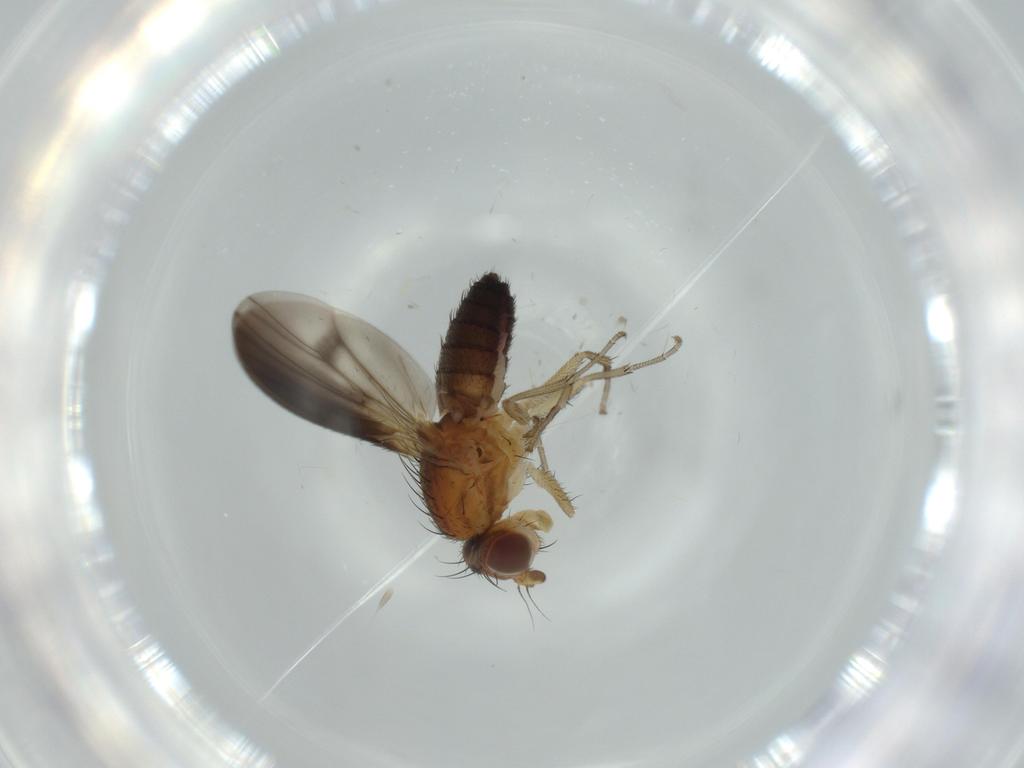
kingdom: Animalia
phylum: Arthropoda
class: Insecta
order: Diptera
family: Heleomyzidae
